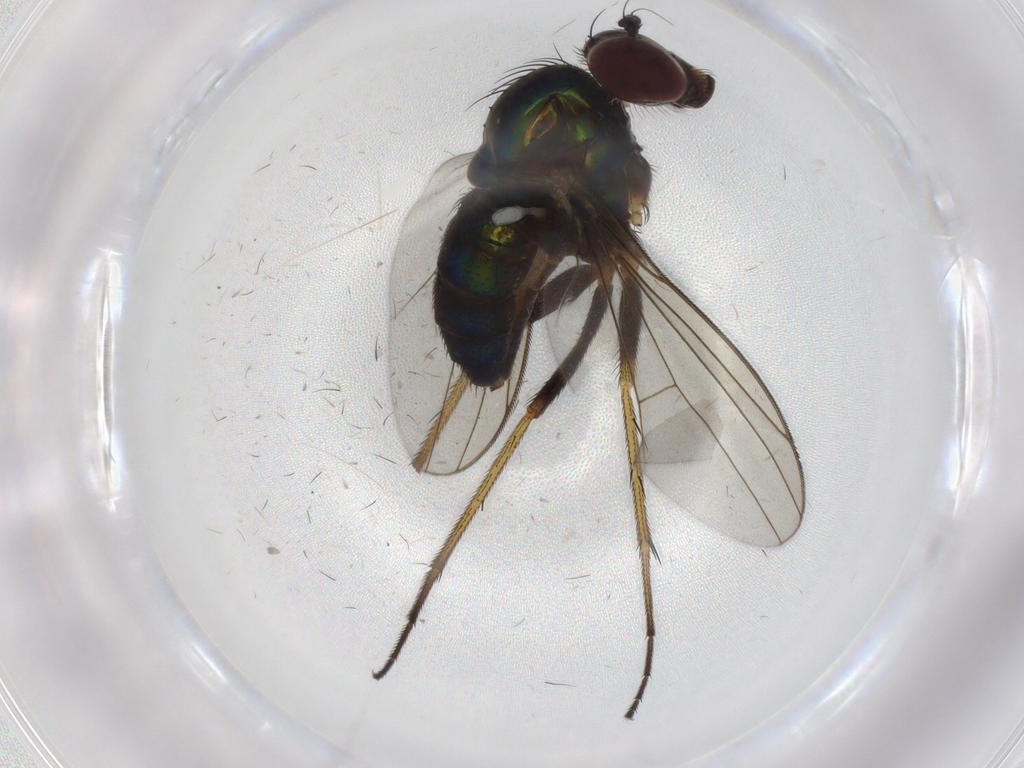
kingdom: Animalia
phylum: Arthropoda
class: Insecta
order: Diptera
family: Dolichopodidae
